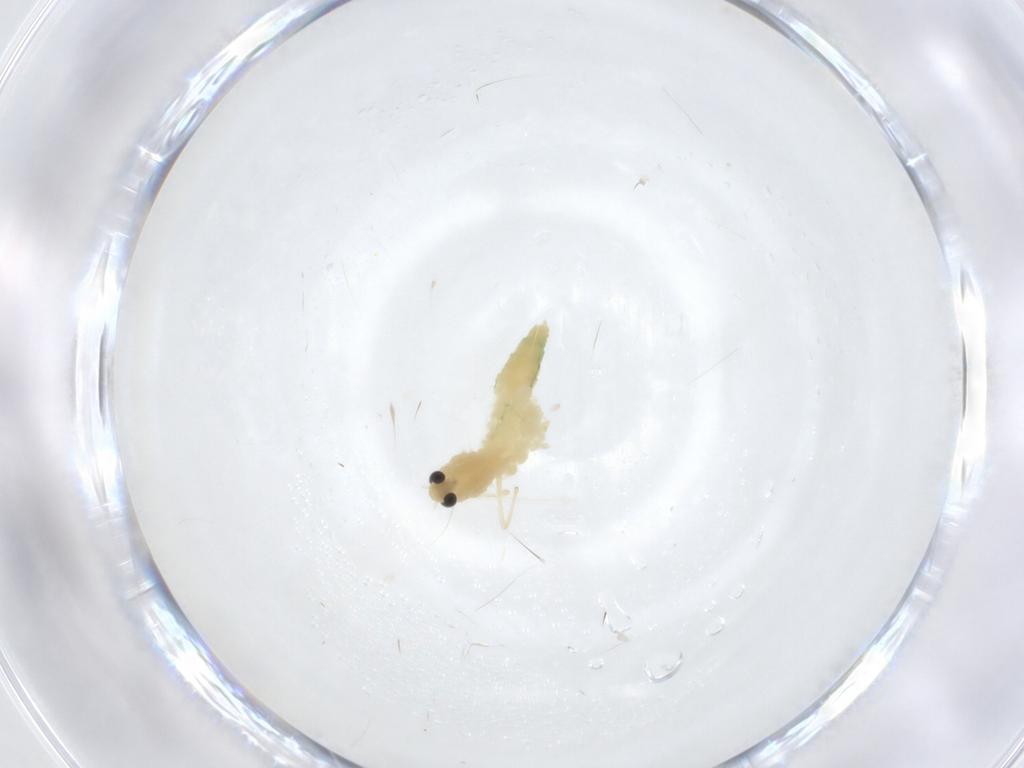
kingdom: Animalia
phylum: Arthropoda
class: Insecta
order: Diptera
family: Chironomidae
